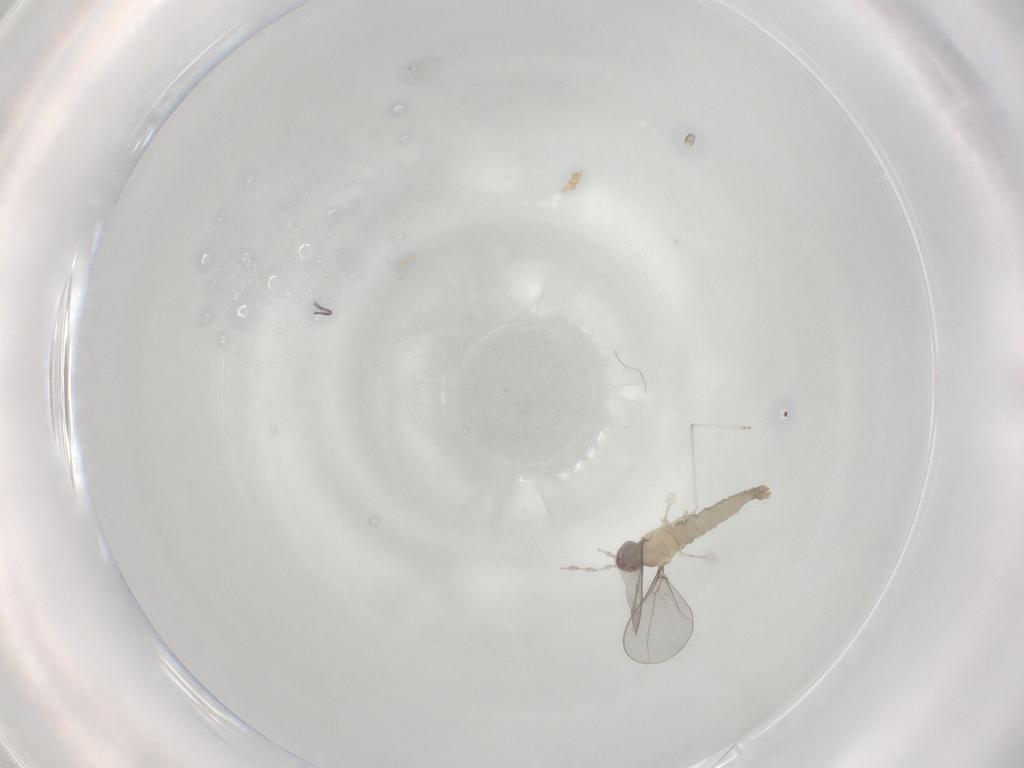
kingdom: Animalia
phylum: Arthropoda
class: Insecta
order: Diptera
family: Cecidomyiidae
